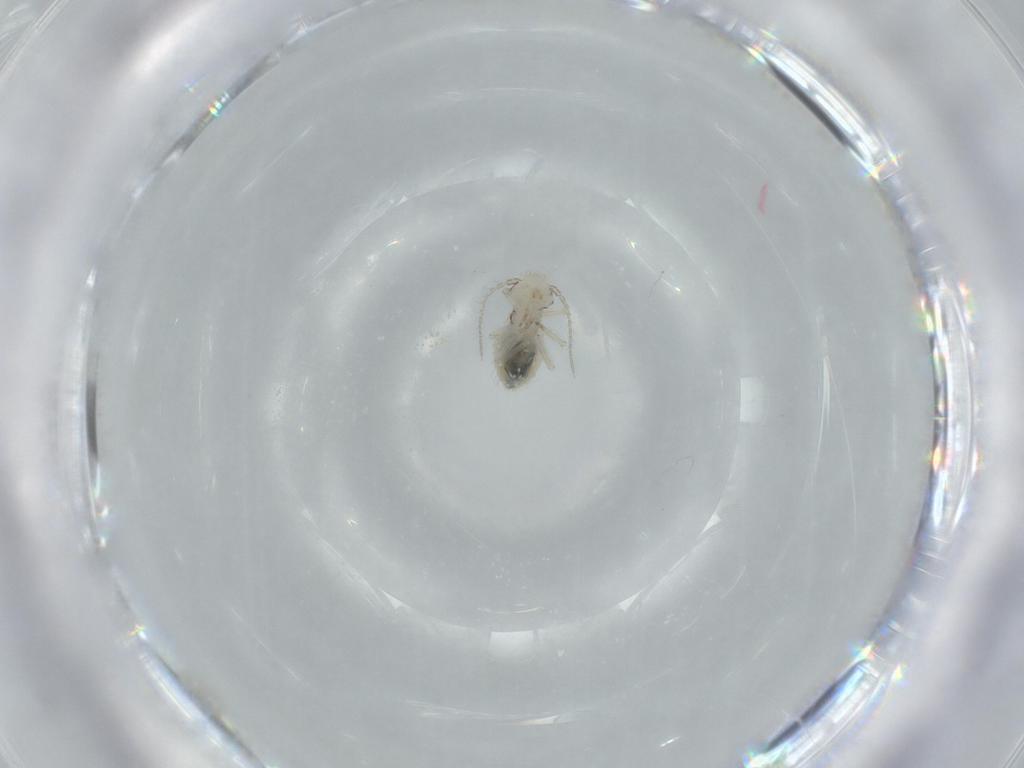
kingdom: Animalia
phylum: Arthropoda
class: Insecta
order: Psocodea
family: Pseudocaeciliidae
